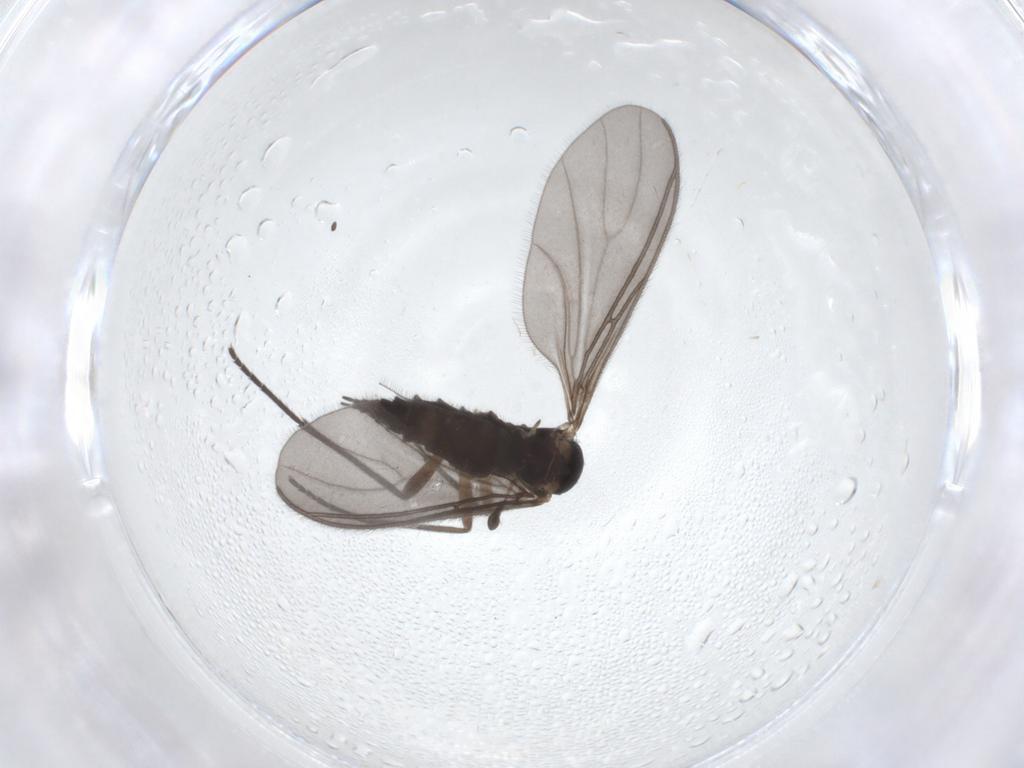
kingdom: Animalia
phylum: Arthropoda
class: Insecta
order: Diptera
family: Sciaridae
